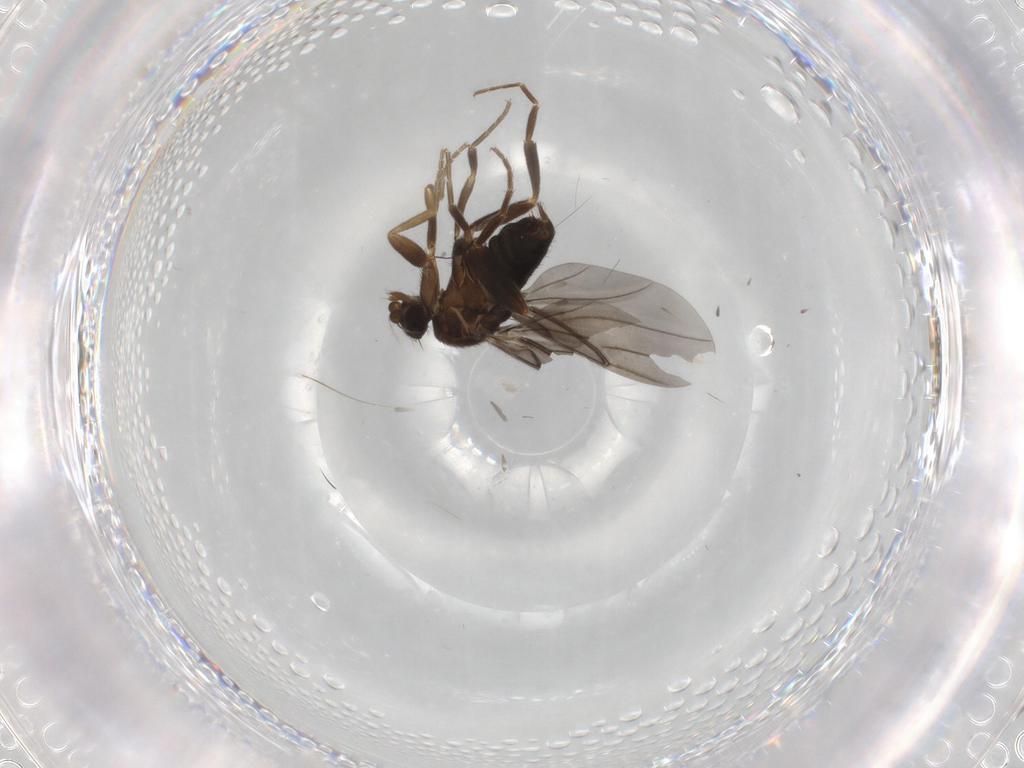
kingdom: Animalia
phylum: Arthropoda
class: Insecta
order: Diptera
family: Phoridae
